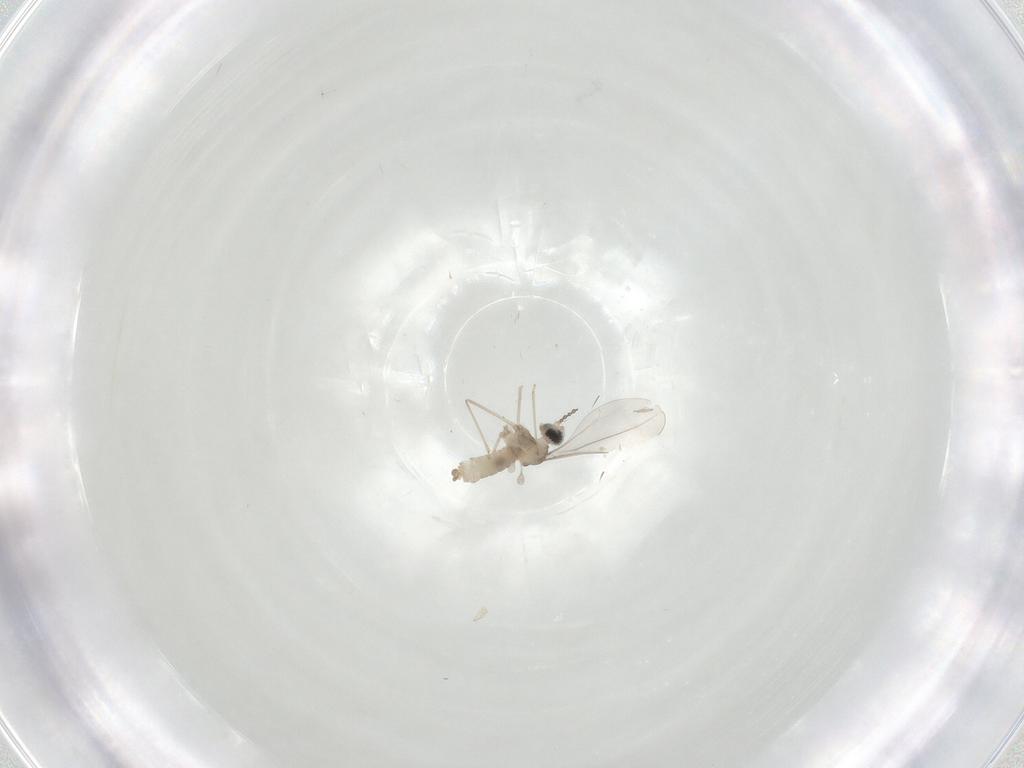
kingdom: Animalia
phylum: Arthropoda
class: Insecta
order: Diptera
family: Cecidomyiidae
